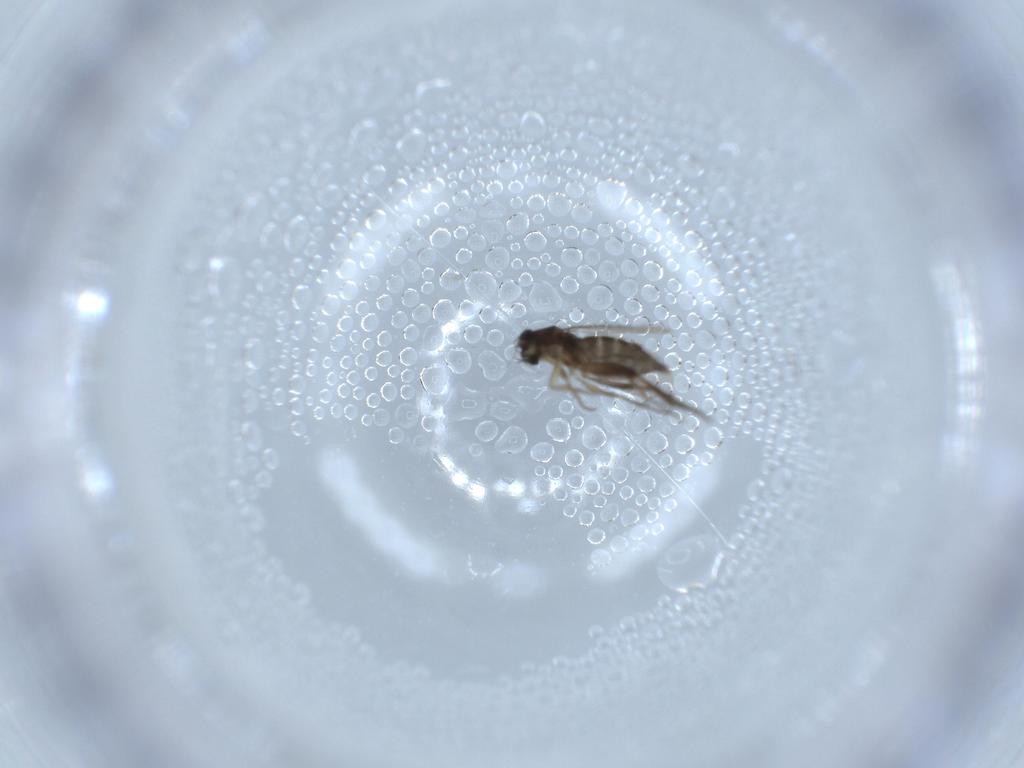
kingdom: Animalia
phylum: Arthropoda
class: Insecta
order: Diptera
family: Phoridae
